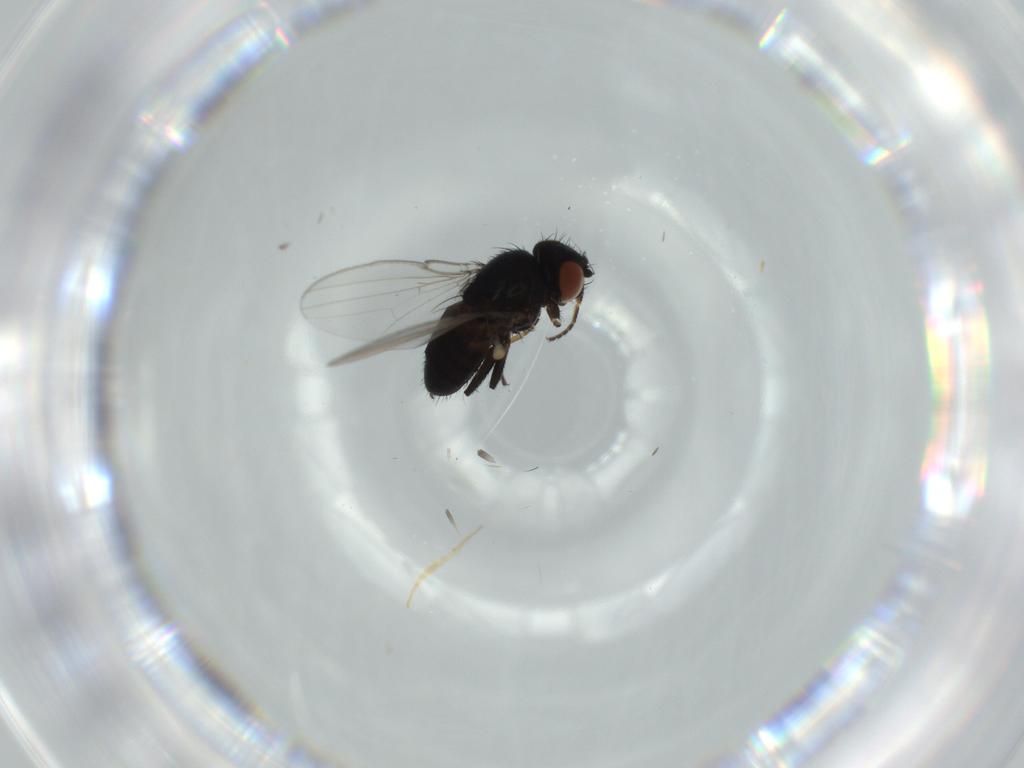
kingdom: Animalia
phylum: Arthropoda
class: Insecta
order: Diptera
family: Milichiidae
